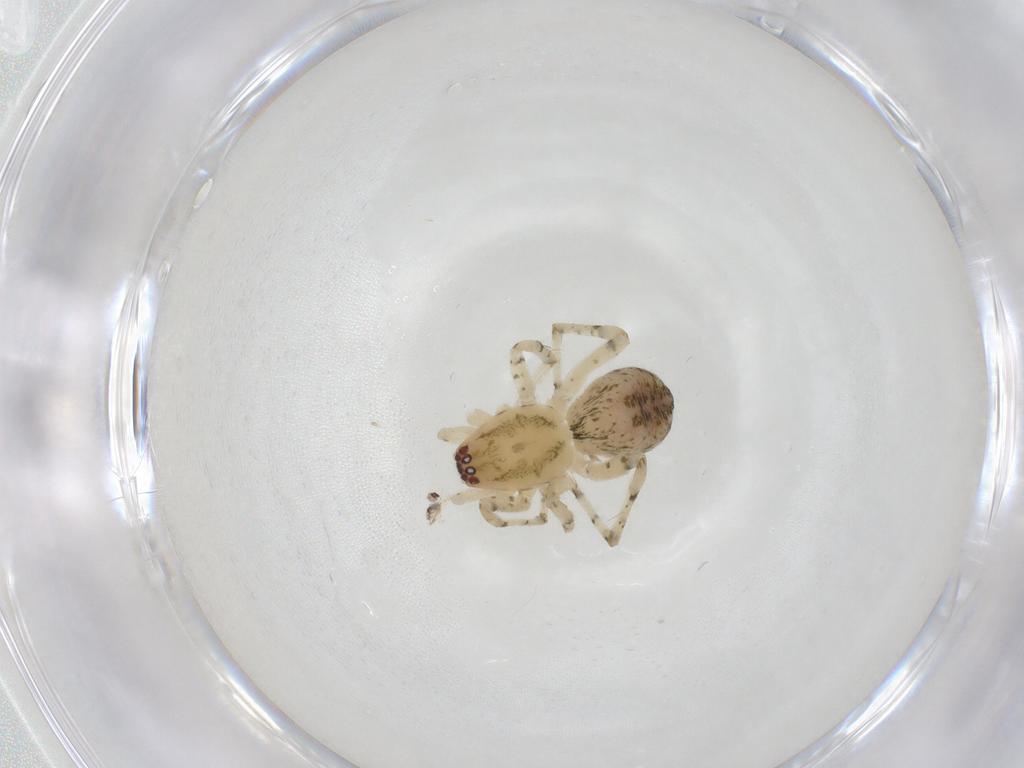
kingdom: Animalia
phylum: Arthropoda
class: Arachnida
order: Araneae
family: Anyphaenidae
